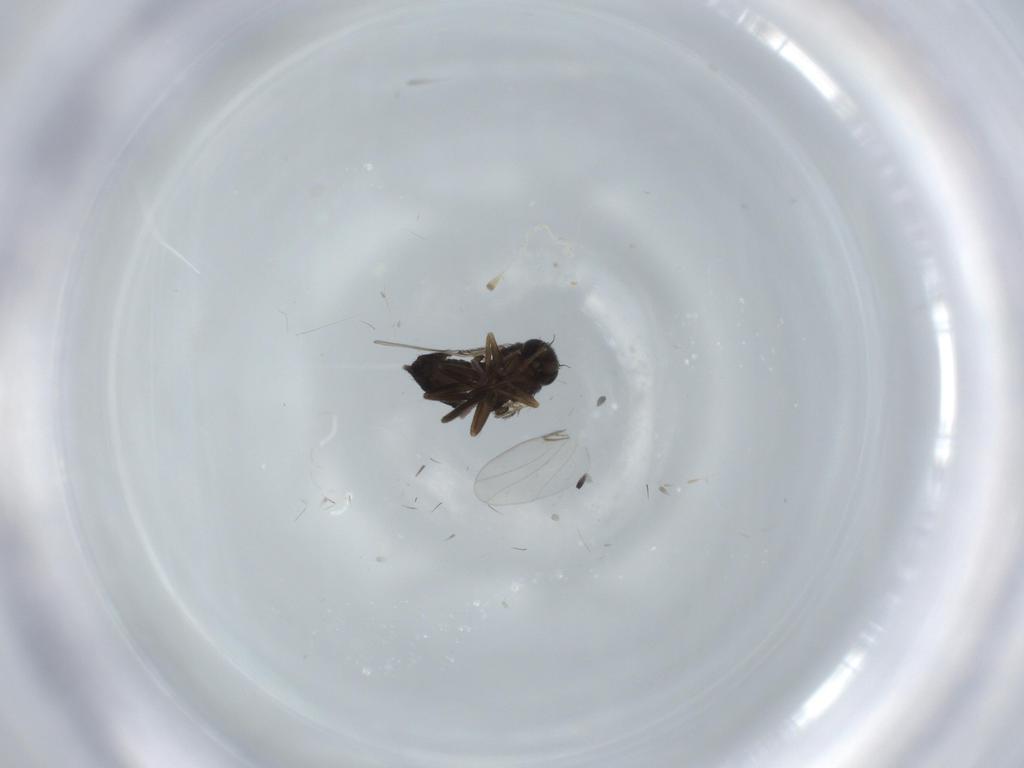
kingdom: Animalia
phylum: Arthropoda
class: Insecta
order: Diptera
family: Phoridae
